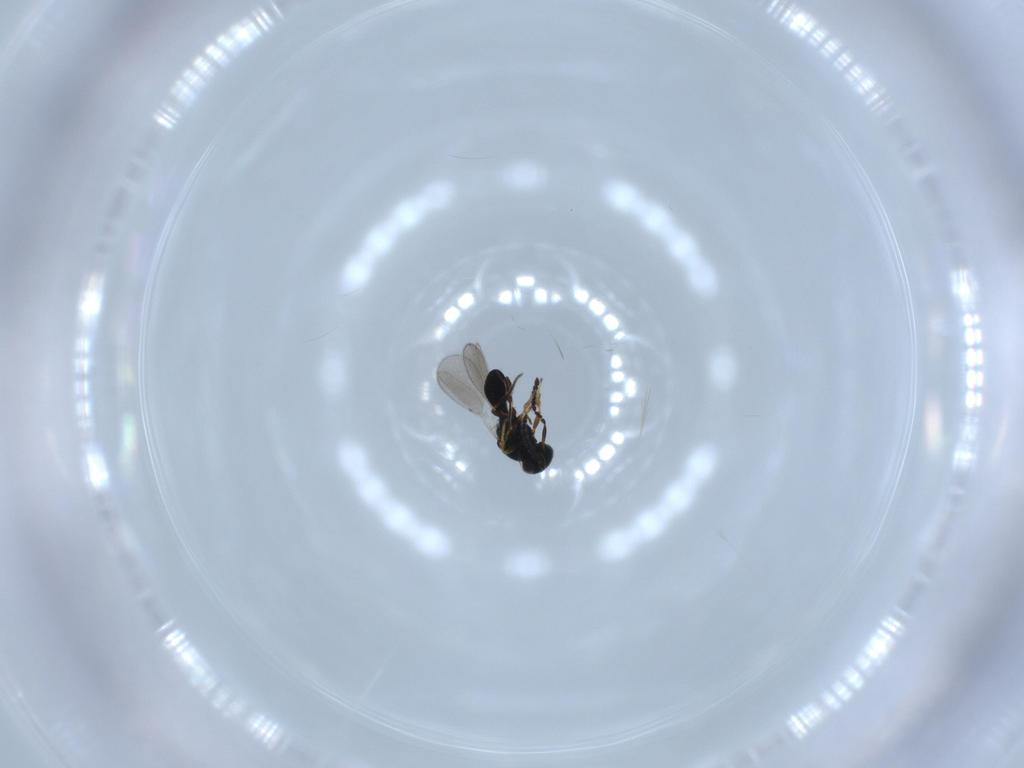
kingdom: Animalia
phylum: Arthropoda
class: Insecta
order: Hymenoptera
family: Platygastridae
